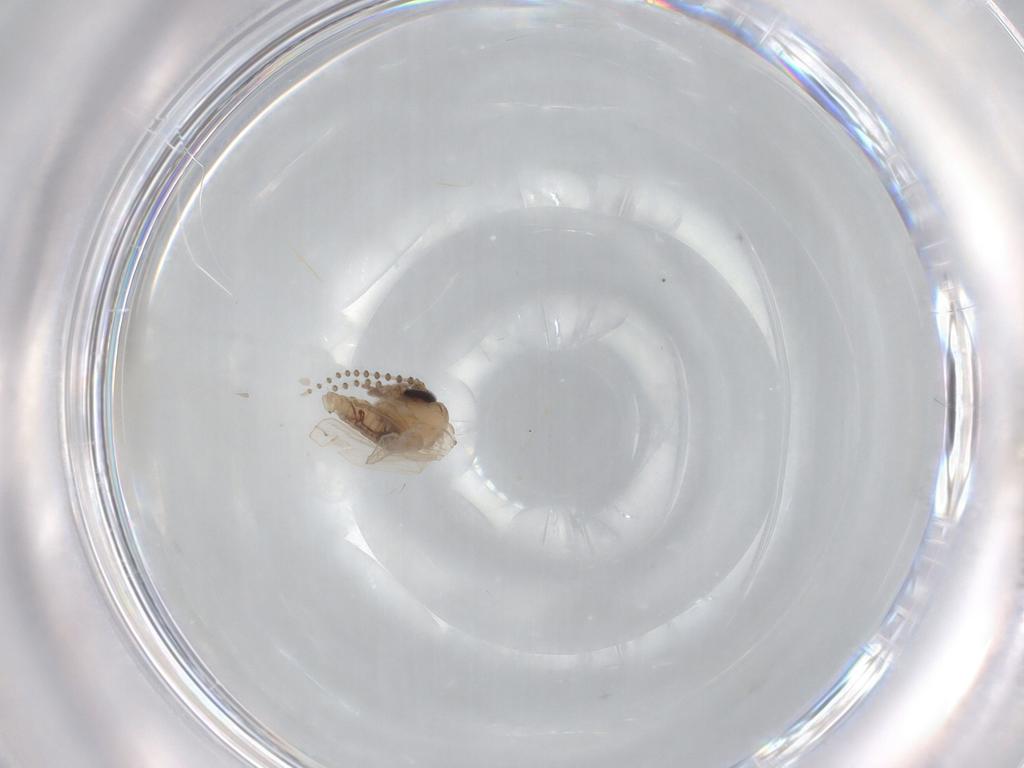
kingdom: Animalia
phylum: Arthropoda
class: Insecta
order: Diptera
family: Psychodidae
